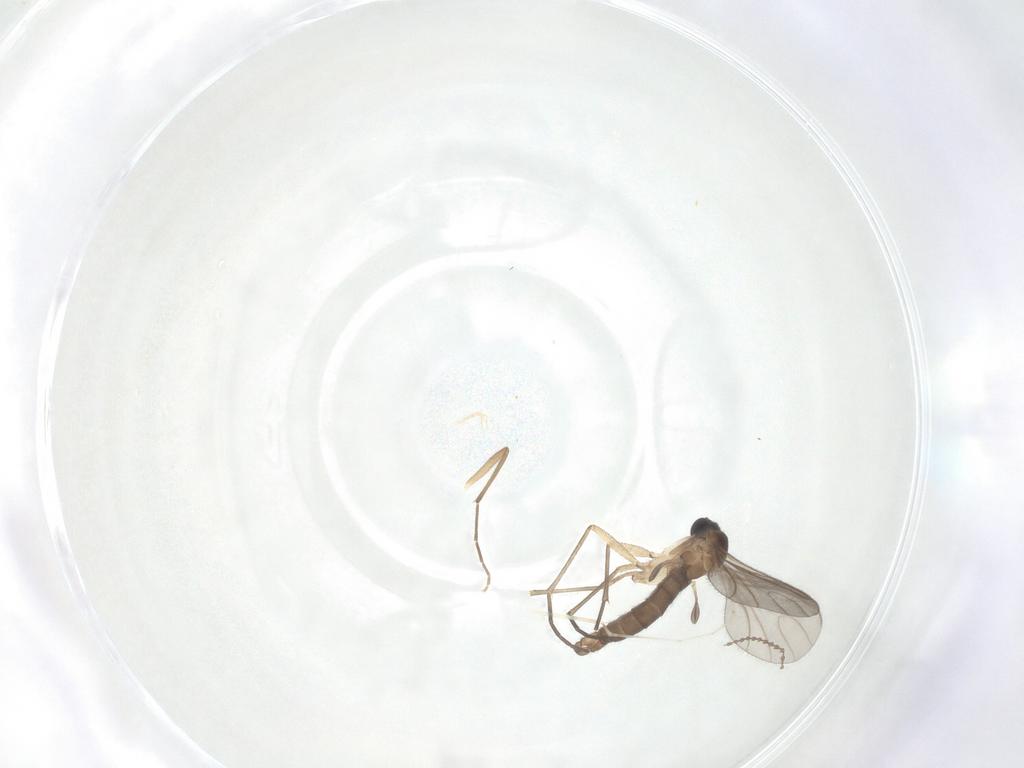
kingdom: Animalia
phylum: Arthropoda
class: Insecta
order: Diptera
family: Sciaridae
